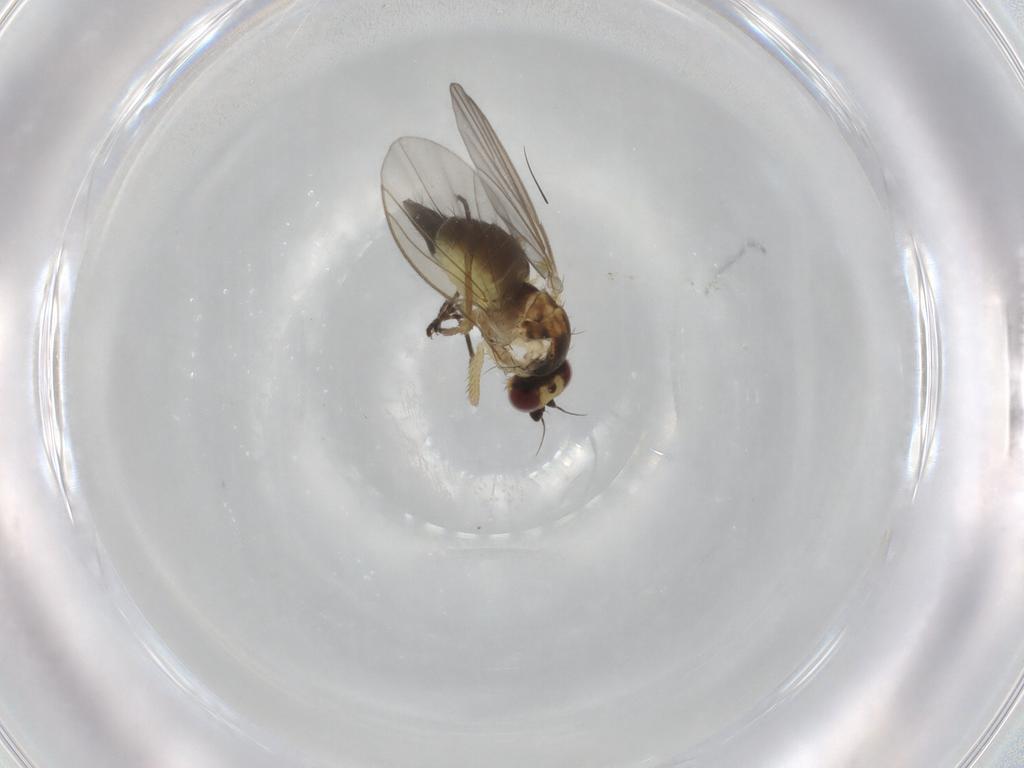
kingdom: Animalia
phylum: Arthropoda
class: Insecta
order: Diptera
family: Agromyzidae
